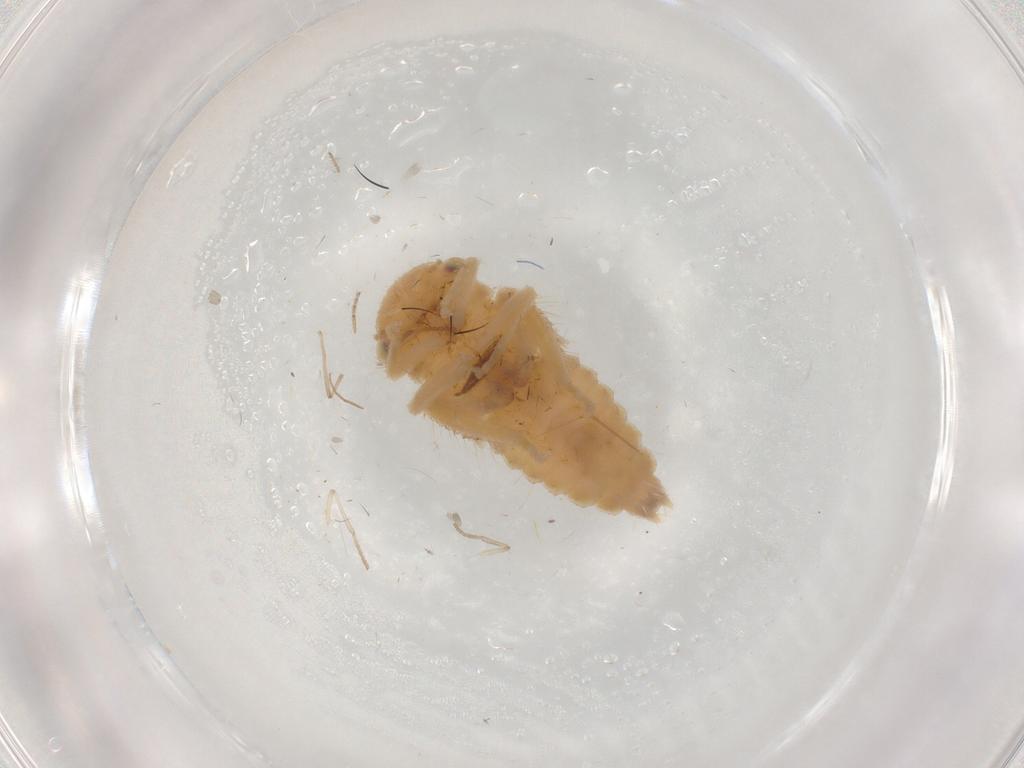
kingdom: Animalia
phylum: Arthropoda
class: Insecta
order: Hemiptera
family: Cicadellidae
